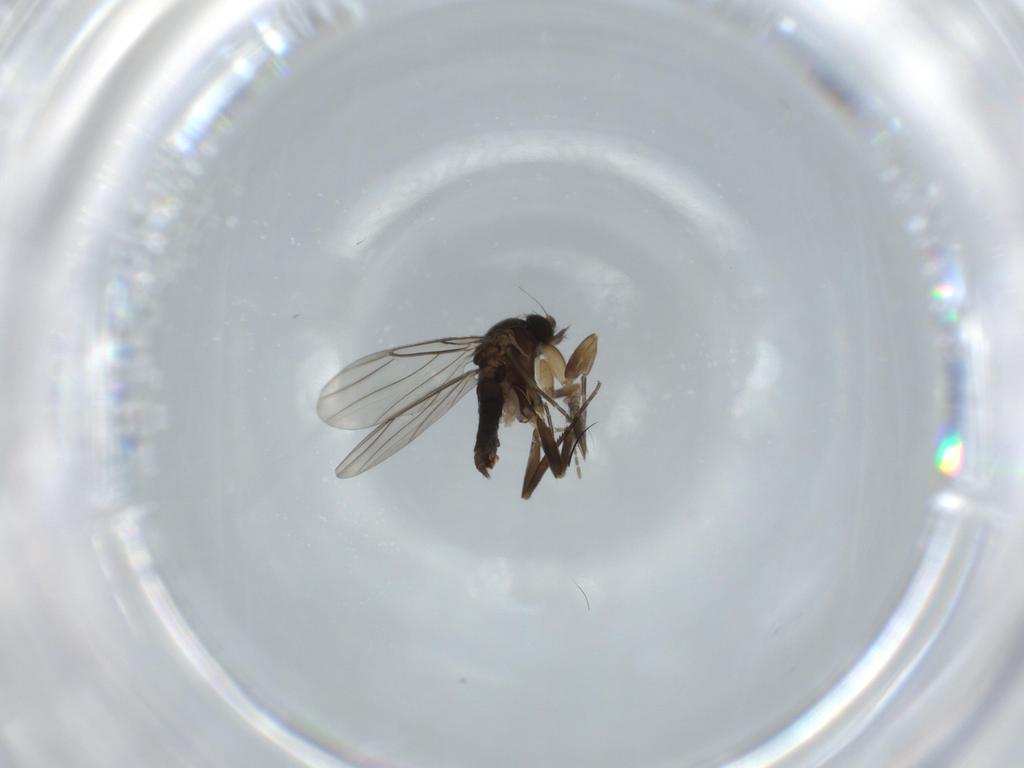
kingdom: Animalia
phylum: Arthropoda
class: Insecta
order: Diptera
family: Phoridae
